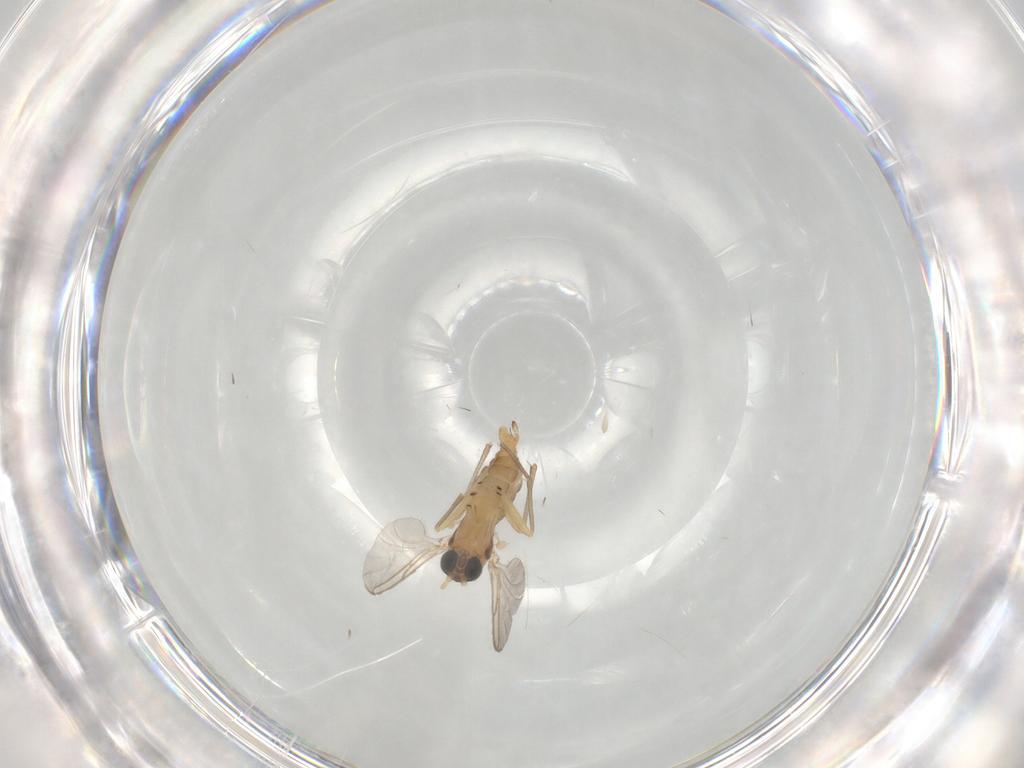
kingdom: Animalia
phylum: Arthropoda
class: Insecta
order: Diptera
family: Sciaridae
